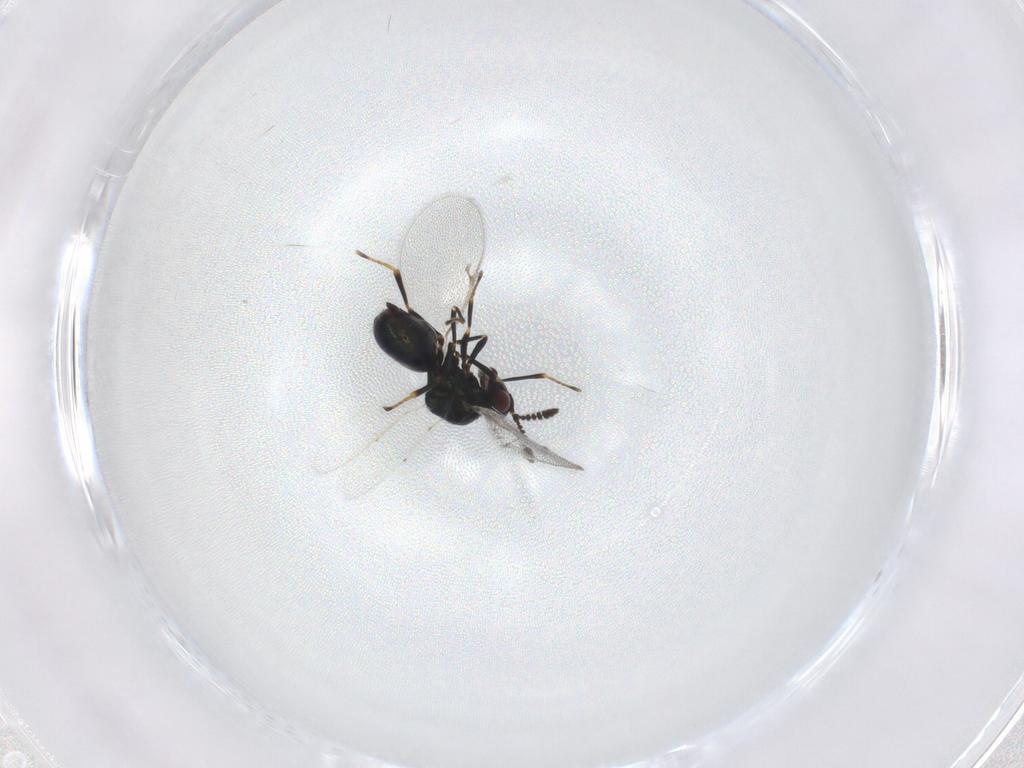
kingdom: Animalia
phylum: Arthropoda
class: Insecta
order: Hymenoptera
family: Pteromalidae
